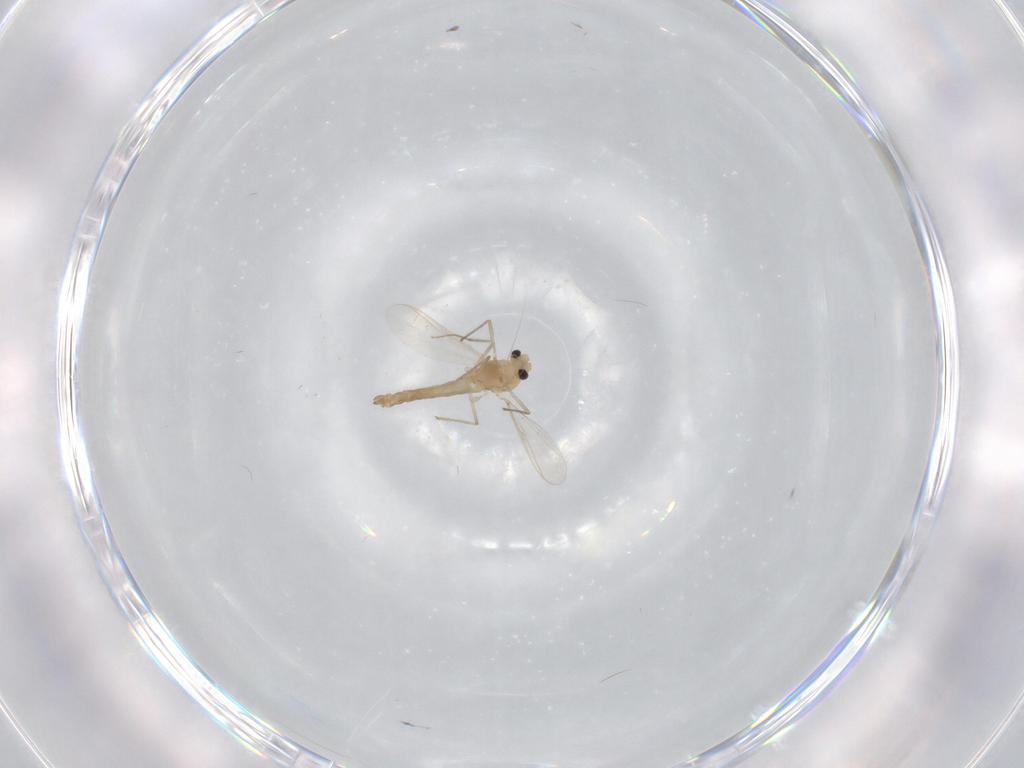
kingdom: Animalia
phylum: Arthropoda
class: Insecta
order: Diptera
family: Chironomidae
